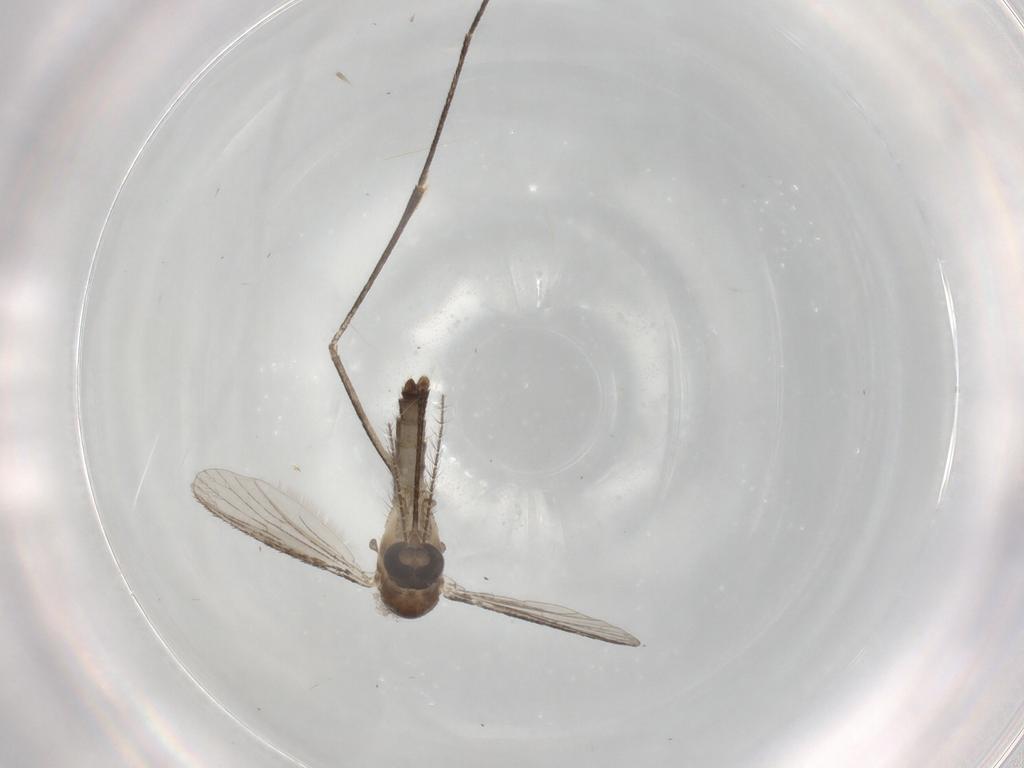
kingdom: Animalia
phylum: Arthropoda
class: Insecta
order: Diptera
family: Culicidae
